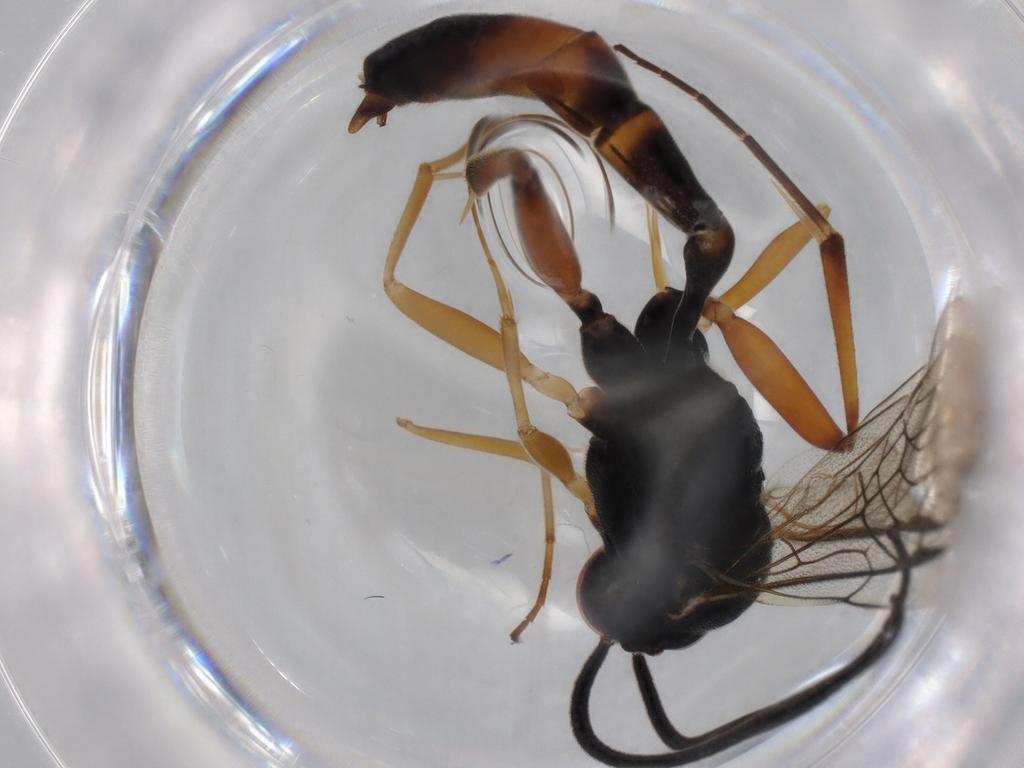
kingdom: Animalia
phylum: Arthropoda
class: Insecta
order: Hymenoptera
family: Ichneumonidae
